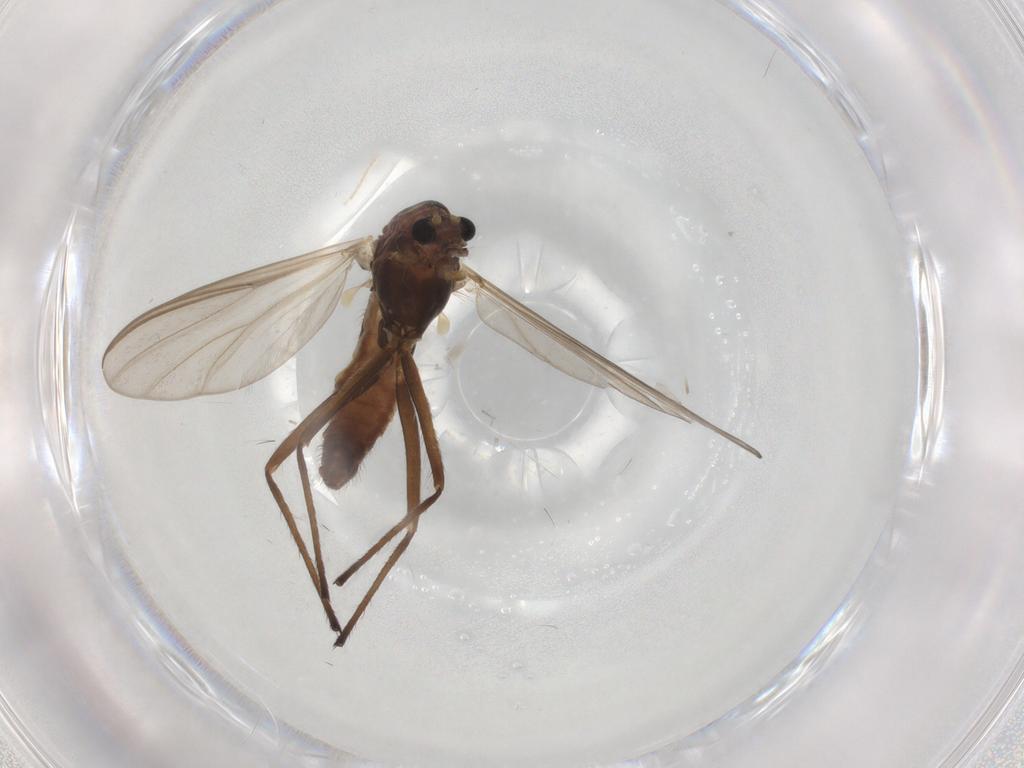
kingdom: Animalia
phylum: Arthropoda
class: Insecta
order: Diptera
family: Chironomidae
